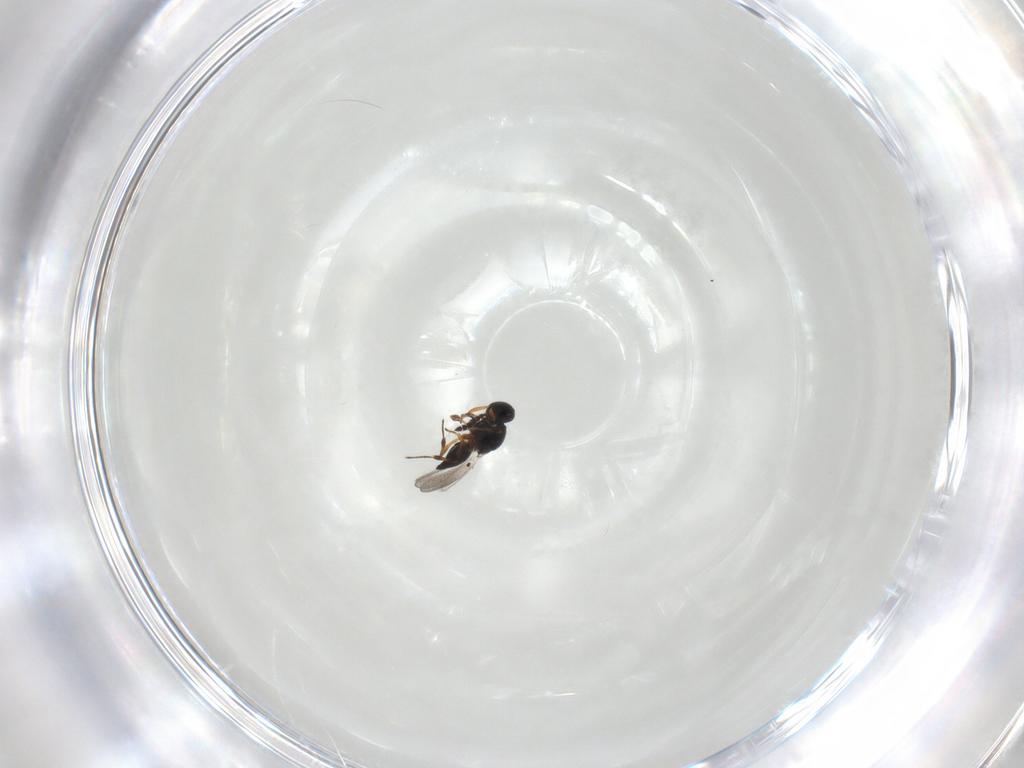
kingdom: Animalia
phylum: Arthropoda
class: Insecta
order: Hymenoptera
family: Platygastridae
